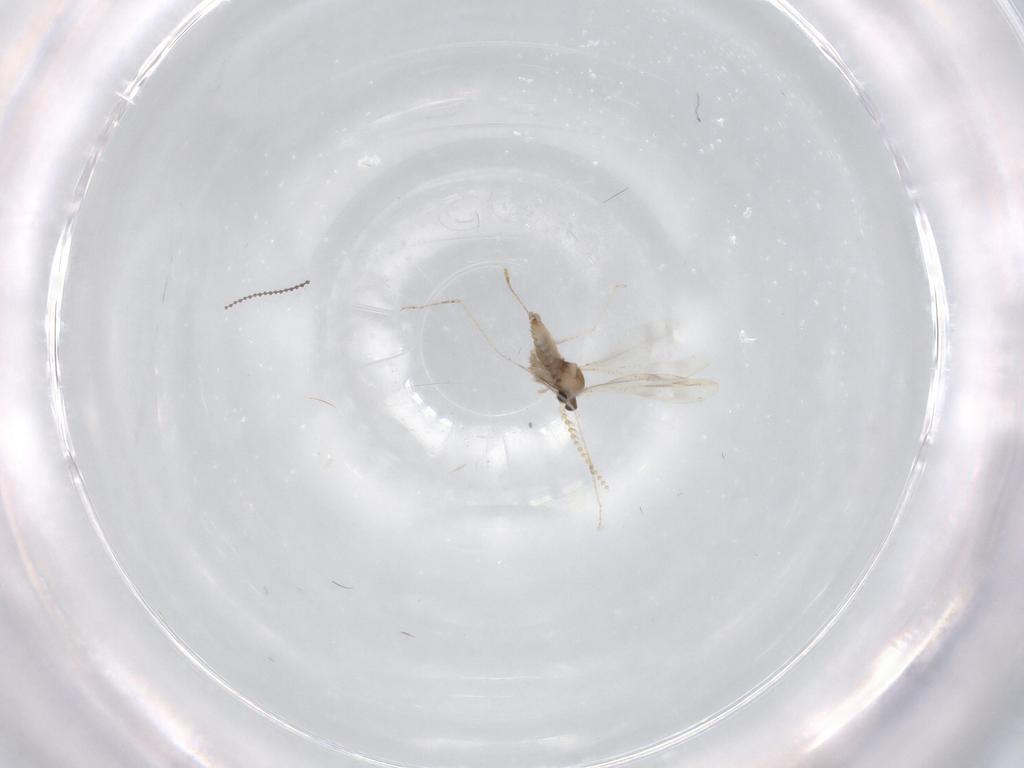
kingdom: Animalia
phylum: Arthropoda
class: Insecta
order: Diptera
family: Cecidomyiidae
